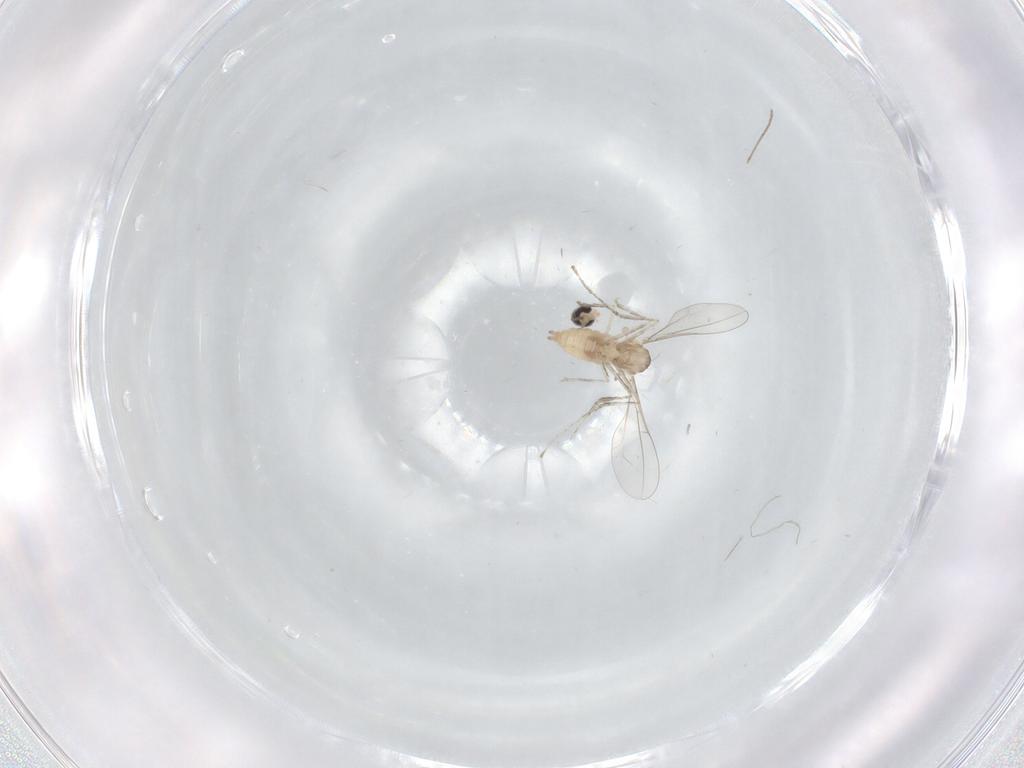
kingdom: Animalia
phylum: Arthropoda
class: Insecta
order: Diptera
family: Cecidomyiidae
